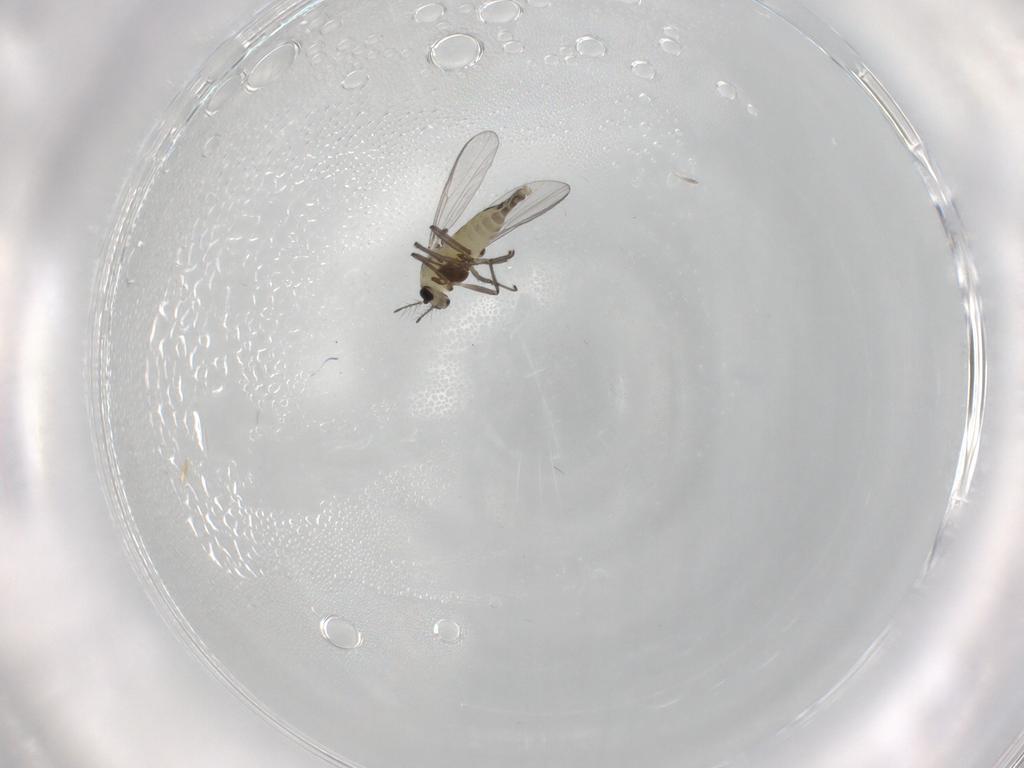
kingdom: Animalia
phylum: Arthropoda
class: Insecta
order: Diptera
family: Chironomidae
